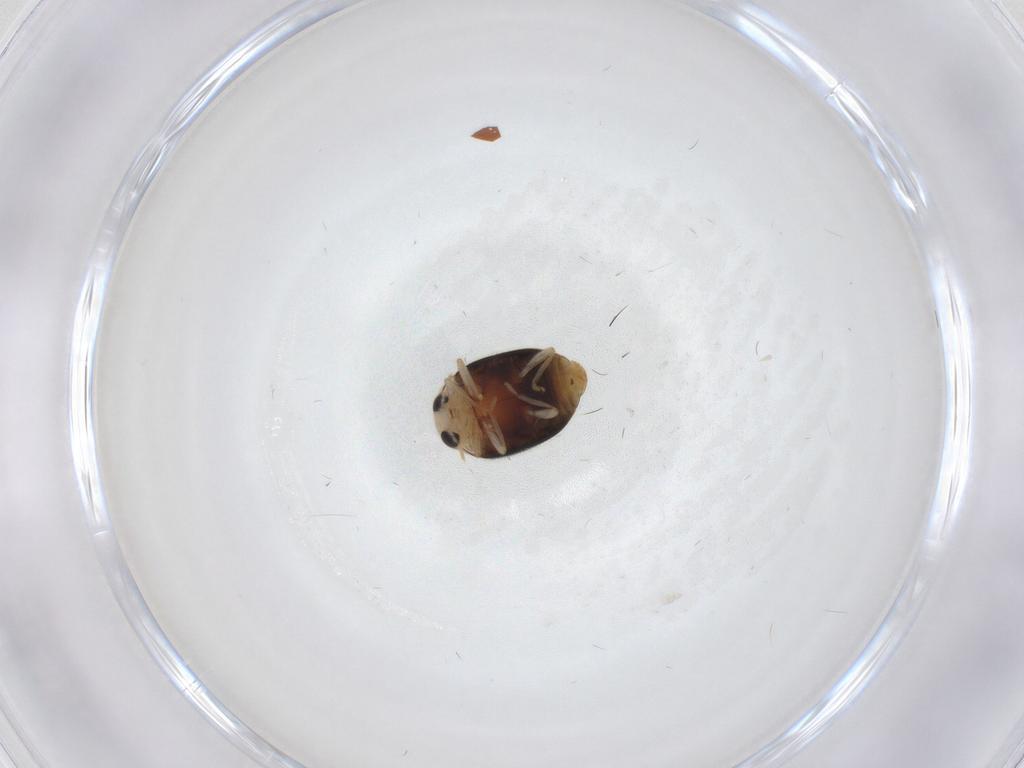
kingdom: Animalia
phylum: Arthropoda
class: Insecta
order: Coleoptera
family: Coccinellidae
